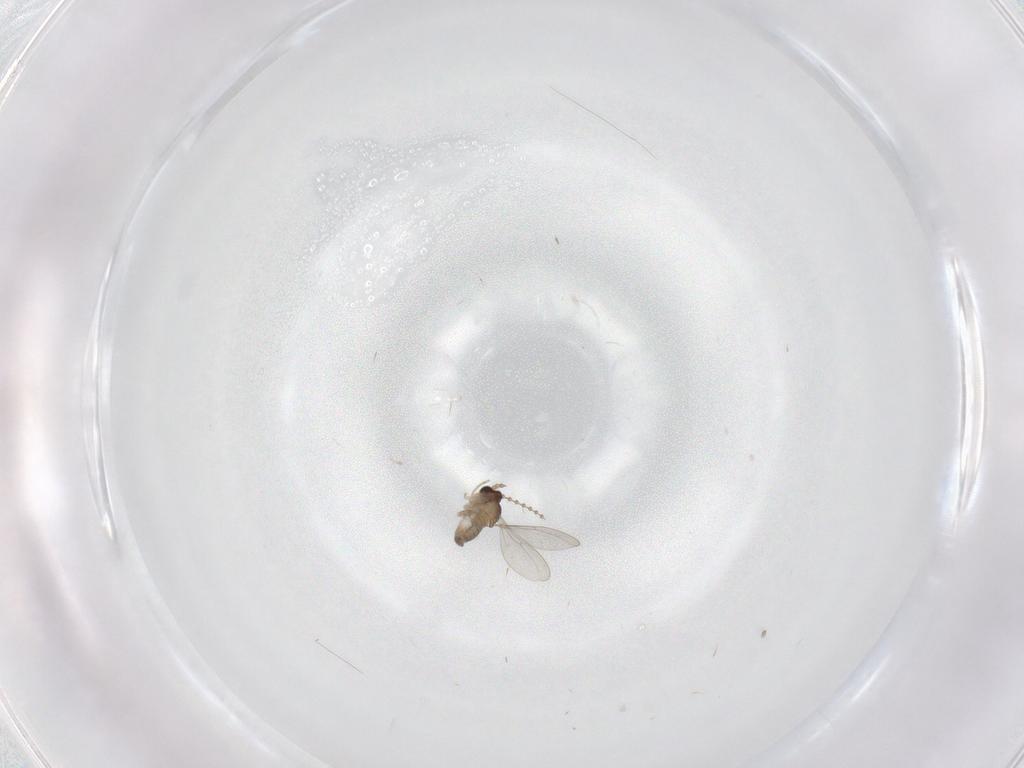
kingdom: Animalia
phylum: Arthropoda
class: Insecta
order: Diptera
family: Cecidomyiidae
